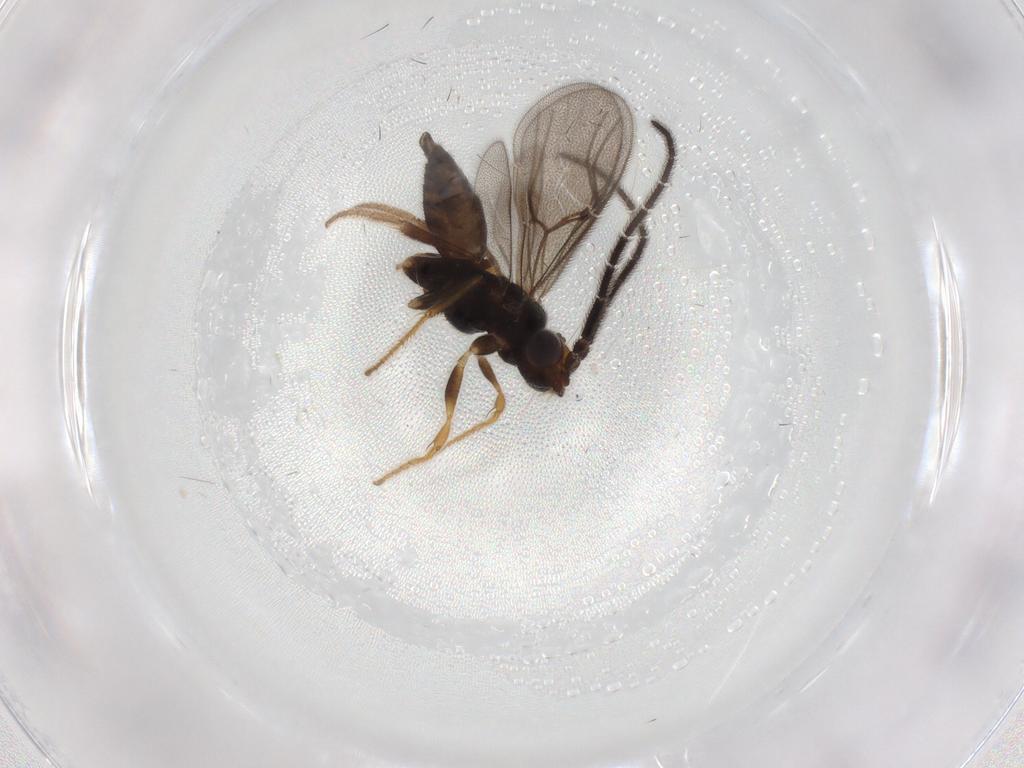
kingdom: Animalia
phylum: Arthropoda
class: Insecta
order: Hymenoptera
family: Dryinidae
